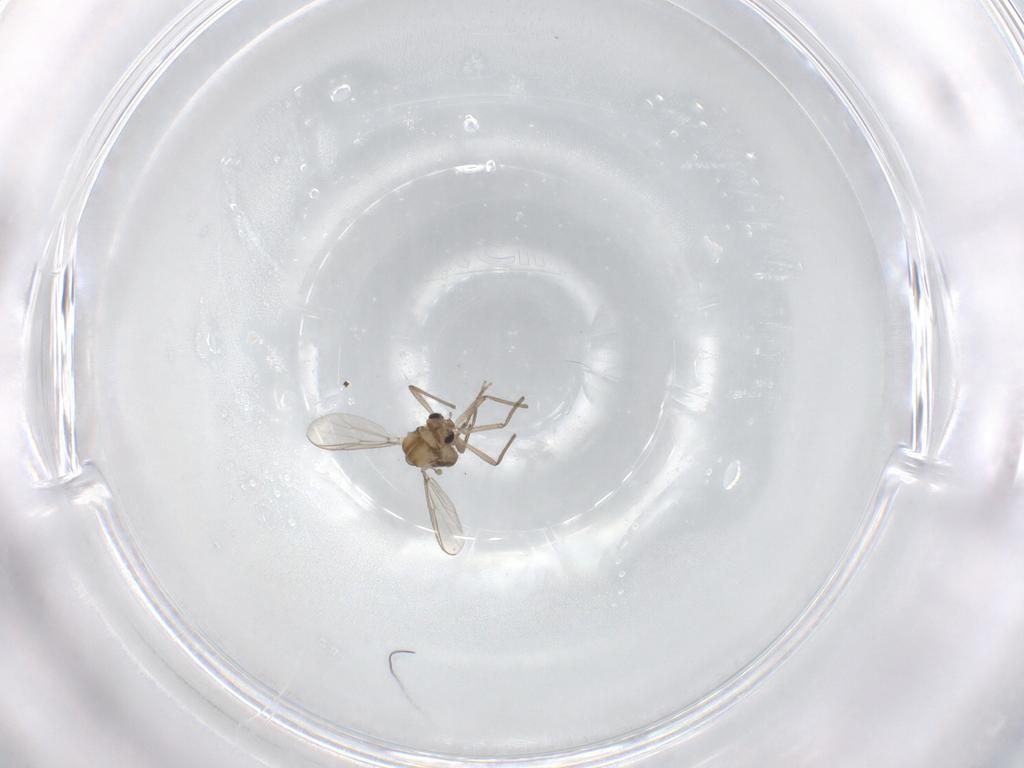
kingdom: Animalia
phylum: Arthropoda
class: Insecta
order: Diptera
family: Chironomidae
